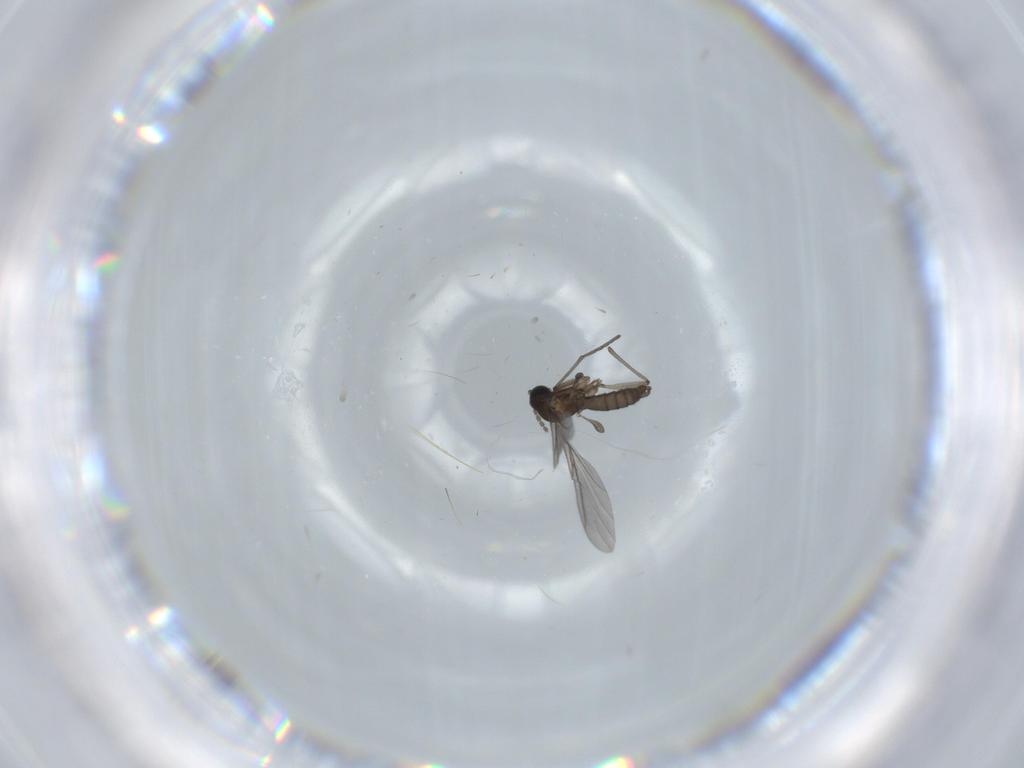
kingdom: Animalia
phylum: Arthropoda
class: Insecta
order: Diptera
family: Sciaridae
